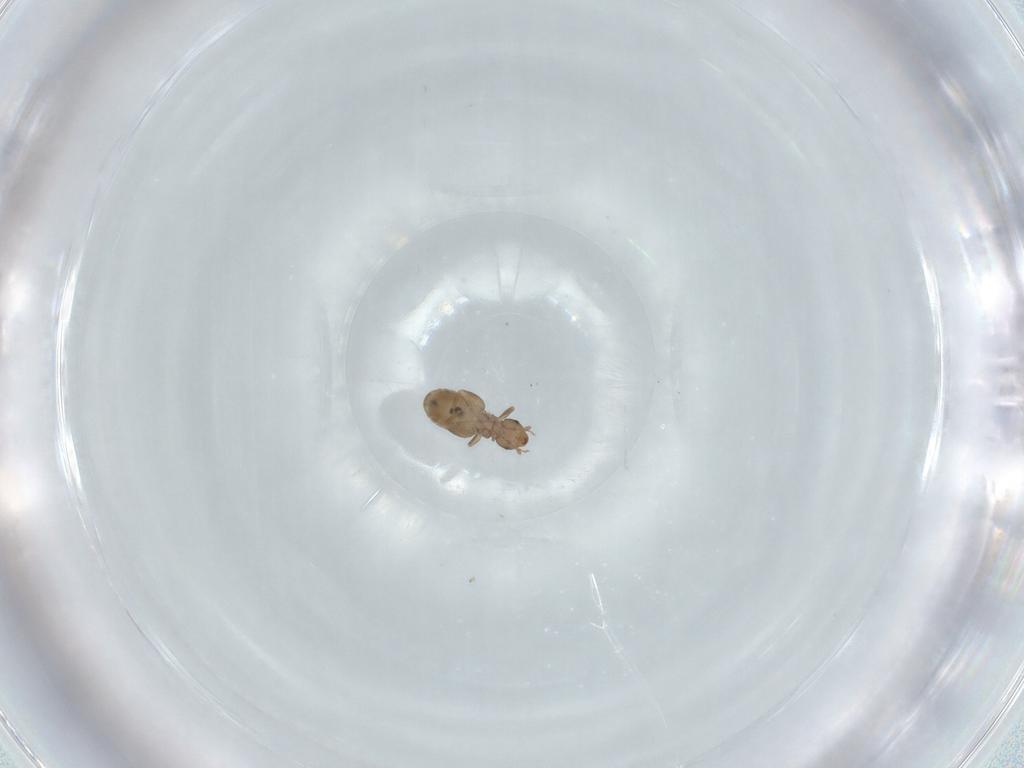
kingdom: Animalia
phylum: Arthropoda
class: Insecta
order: Psocodea
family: Liposcelididae
